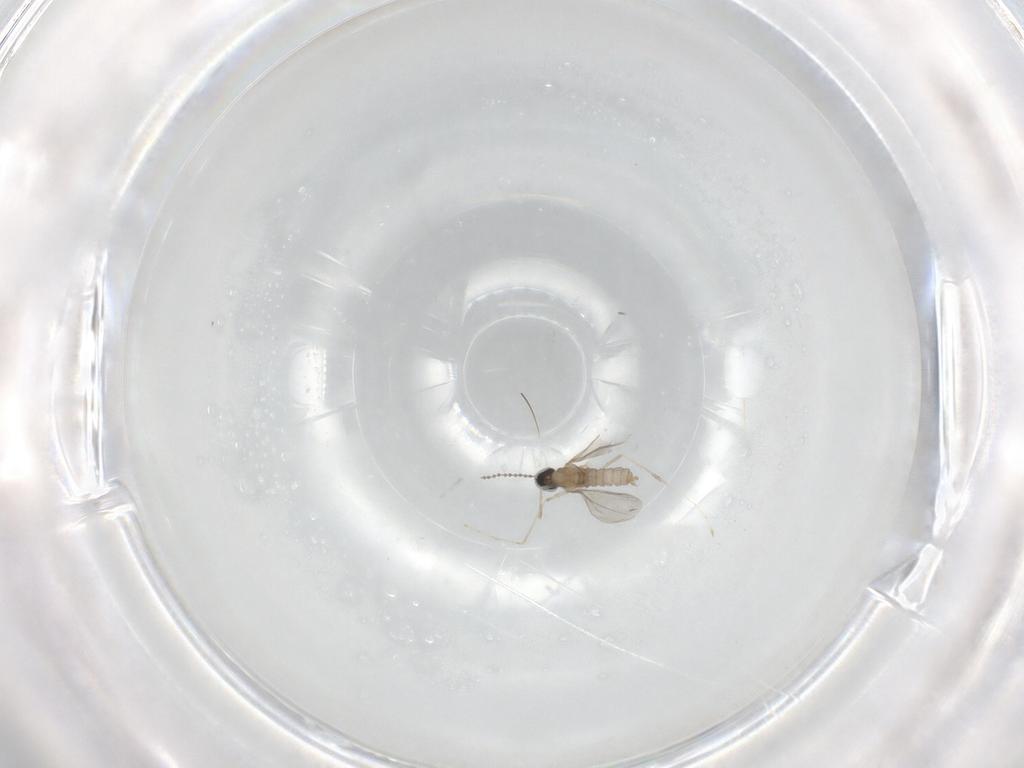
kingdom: Animalia
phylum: Arthropoda
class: Insecta
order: Diptera
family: Cecidomyiidae
